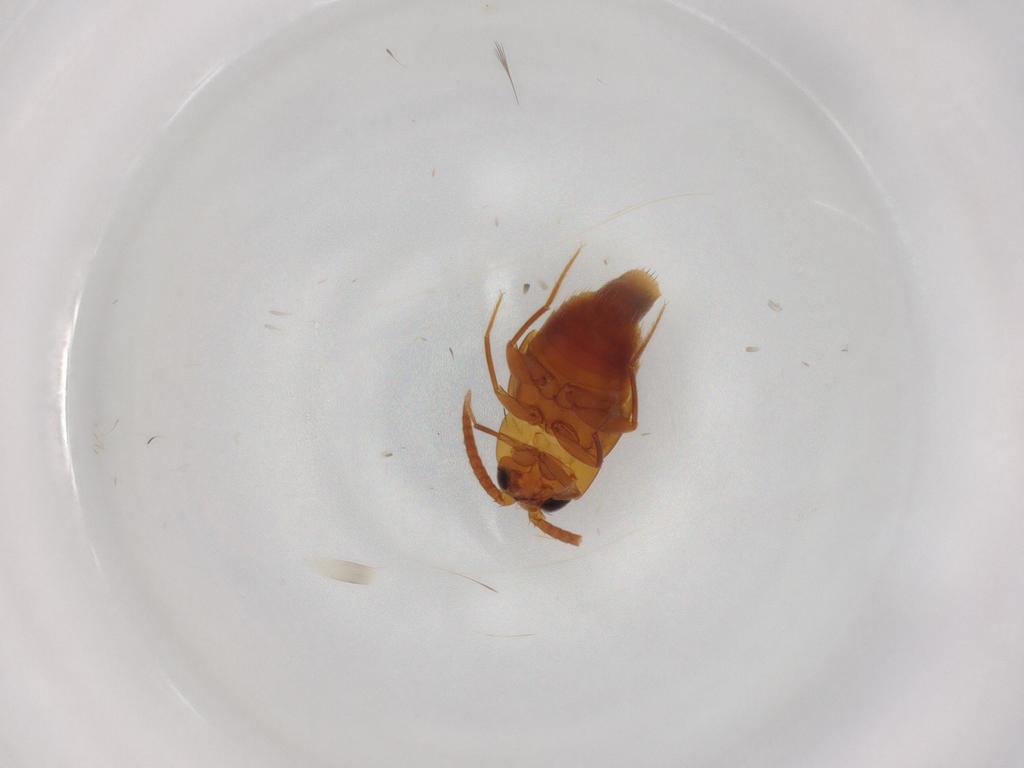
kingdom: Animalia
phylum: Arthropoda
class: Insecta
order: Coleoptera
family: Staphylinidae
